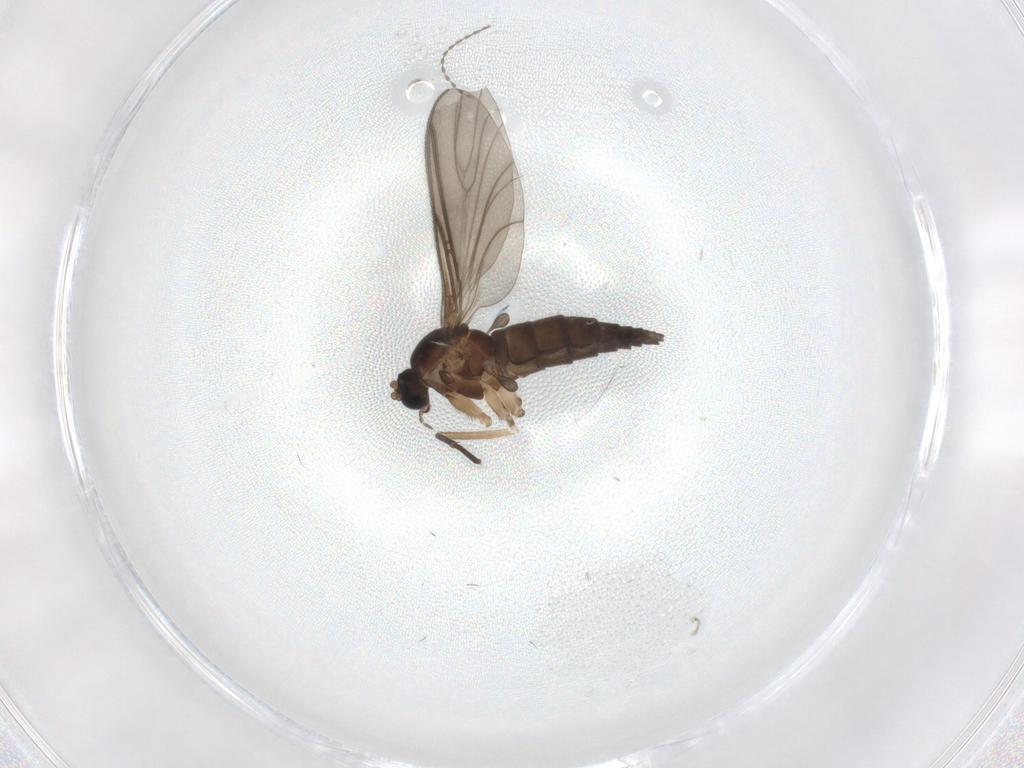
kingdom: Animalia
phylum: Arthropoda
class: Insecta
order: Diptera
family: Sciaridae
